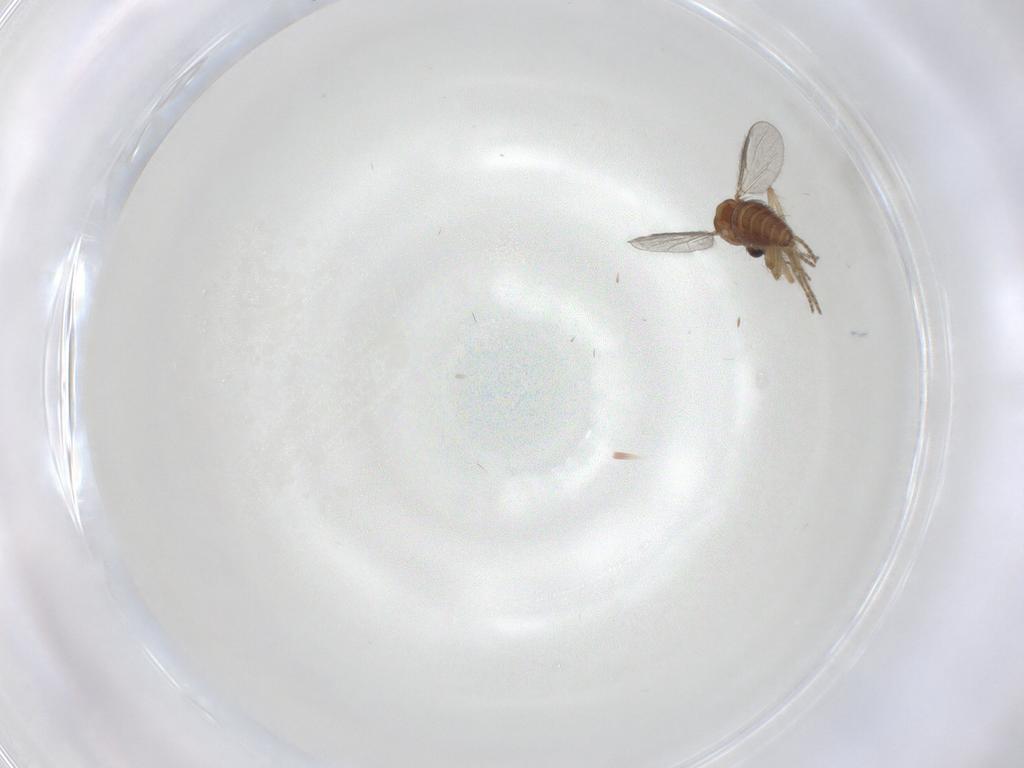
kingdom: Animalia
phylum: Arthropoda
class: Insecta
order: Diptera
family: Ceratopogonidae
